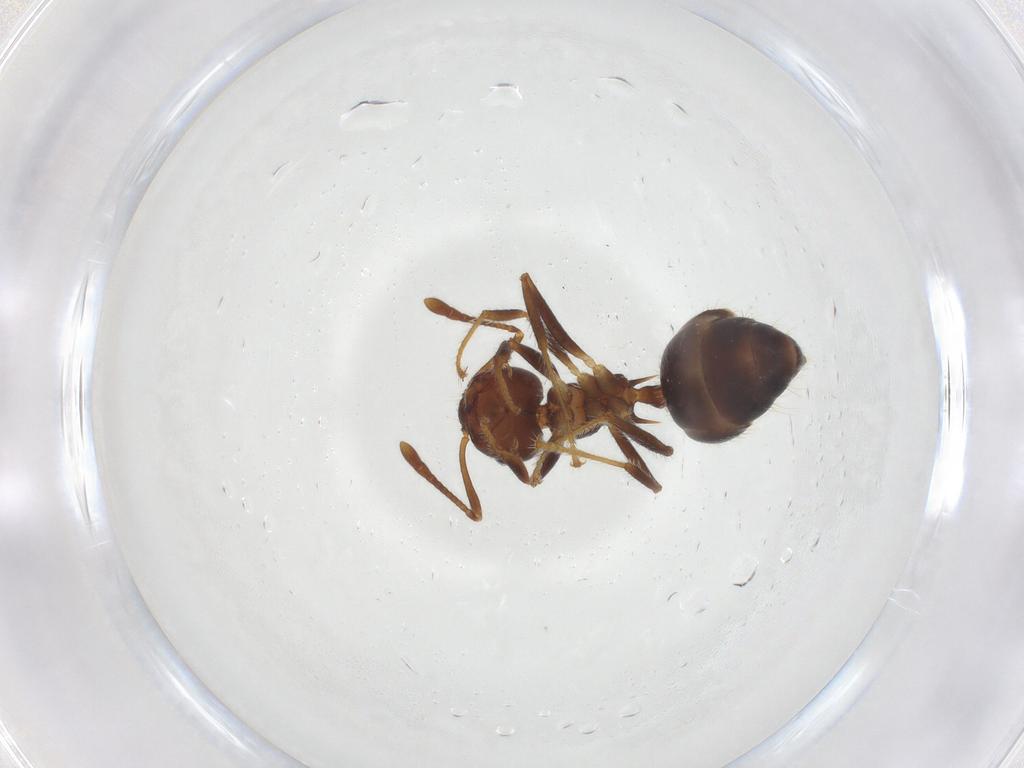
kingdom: Animalia
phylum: Arthropoda
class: Insecta
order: Hymenoptera
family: Formicidae
